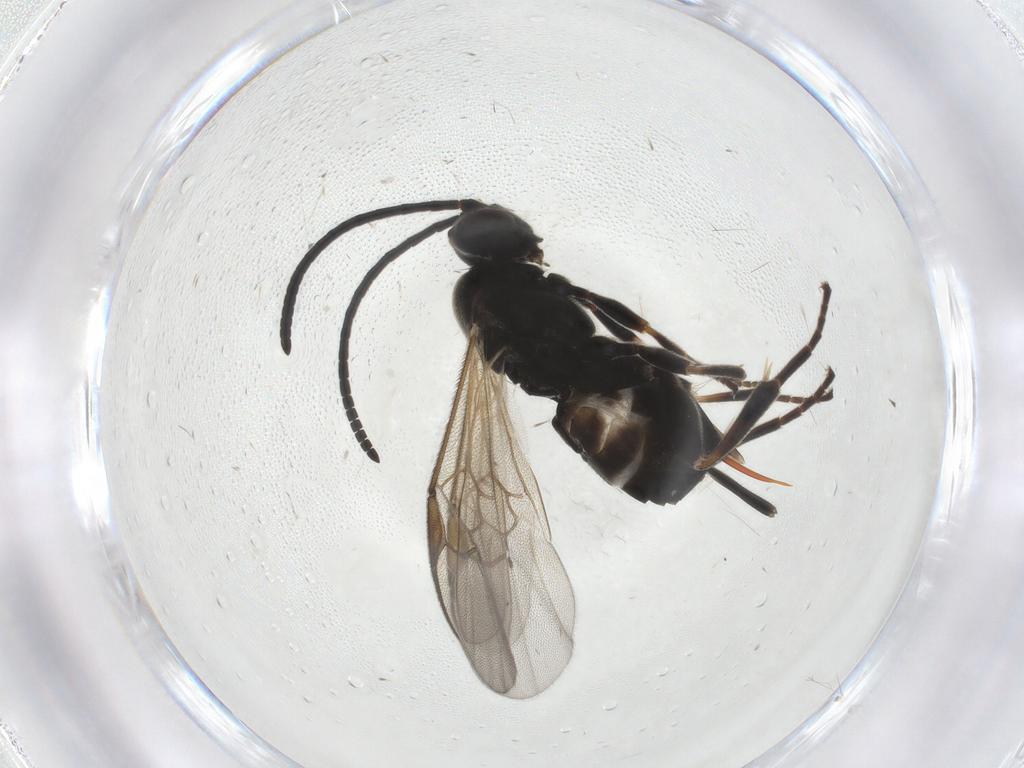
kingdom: Animalia
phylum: Arthropoda
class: Insecta
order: Hymenoptera
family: Braconidae
